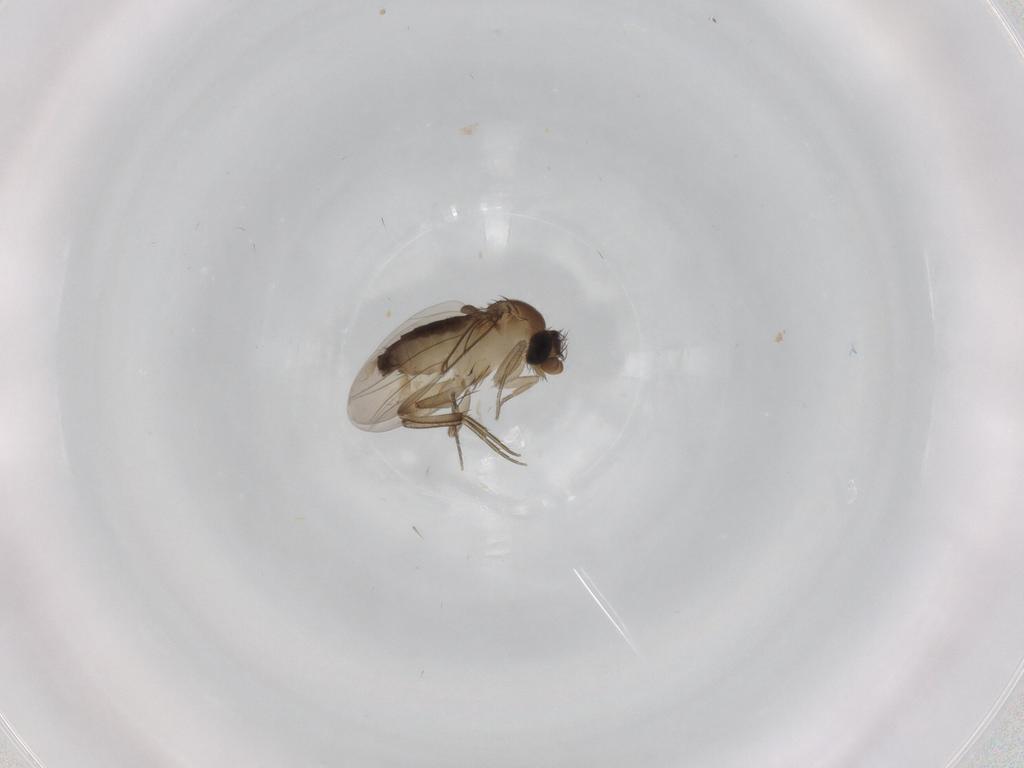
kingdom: Animalia
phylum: Arthropoda
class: Insecta
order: Diptera
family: Phoridae
